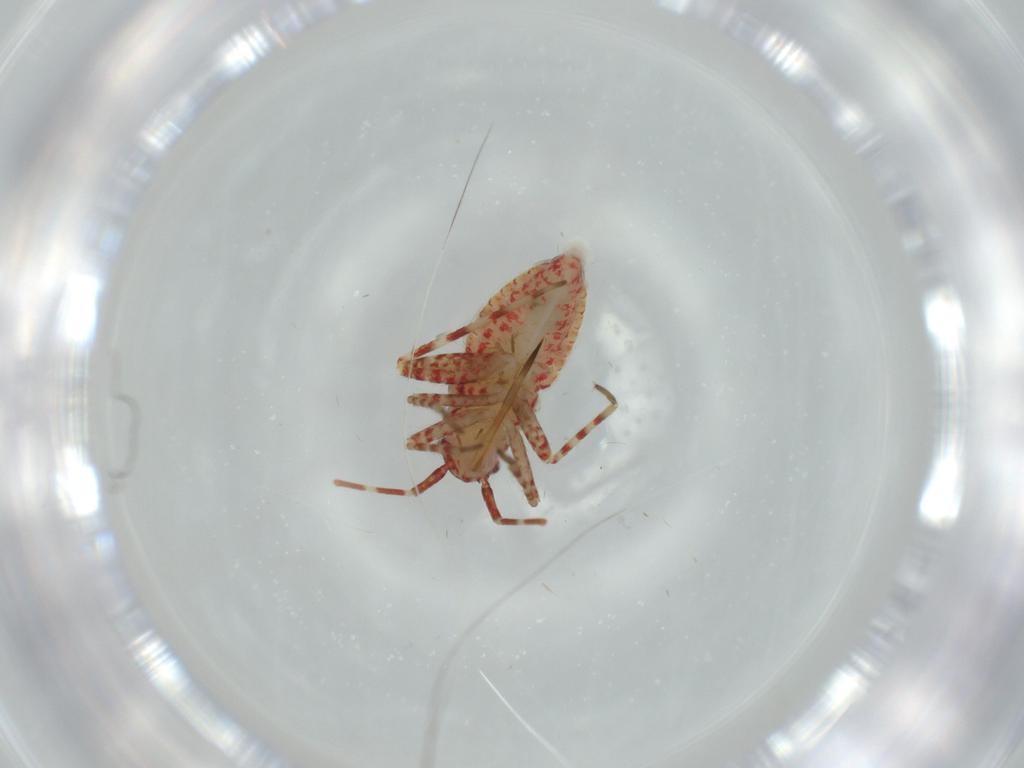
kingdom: Animalia
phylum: Arthropoda
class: Insecta
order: Hemiptera
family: Miridae
